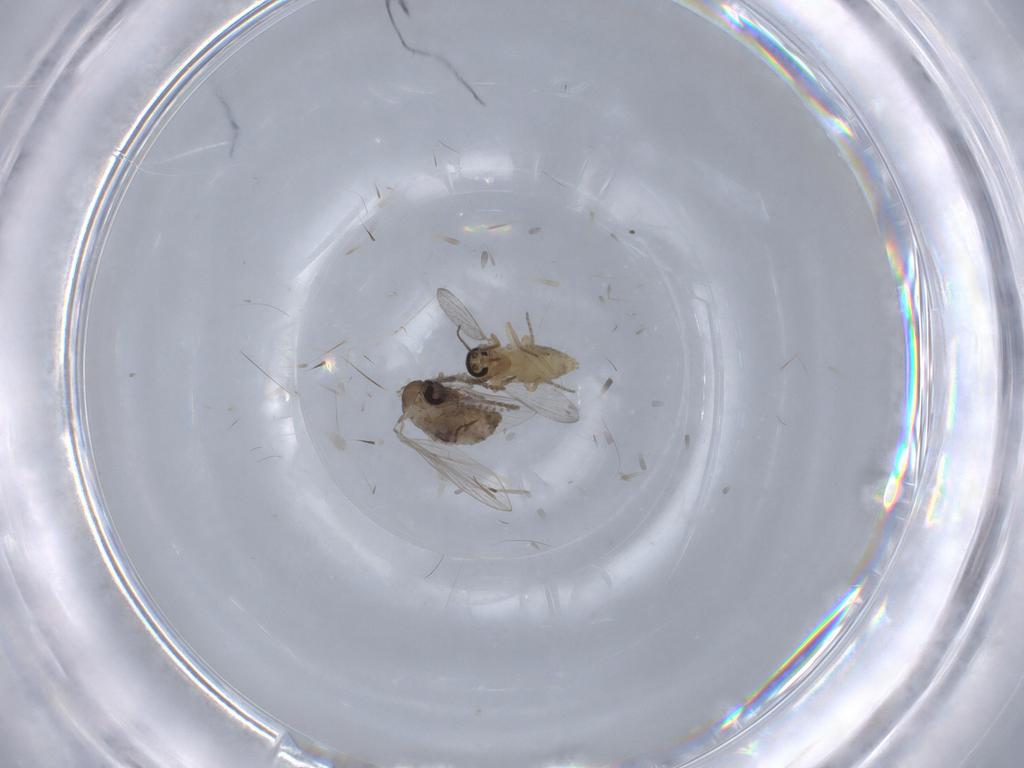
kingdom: Animalia
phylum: Arthropoda
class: Insecta
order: Diptera
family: Psychodidae
